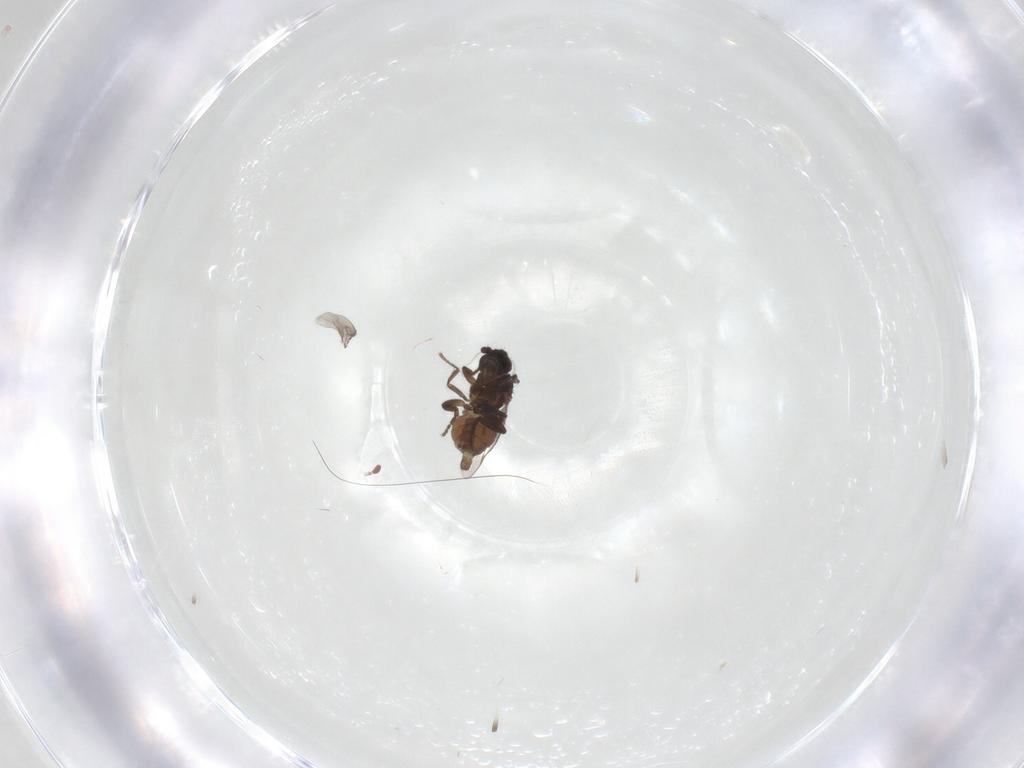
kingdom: Animalia
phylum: Arthropoda
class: Insecta
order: Diptera
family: Sphaeroceridae
